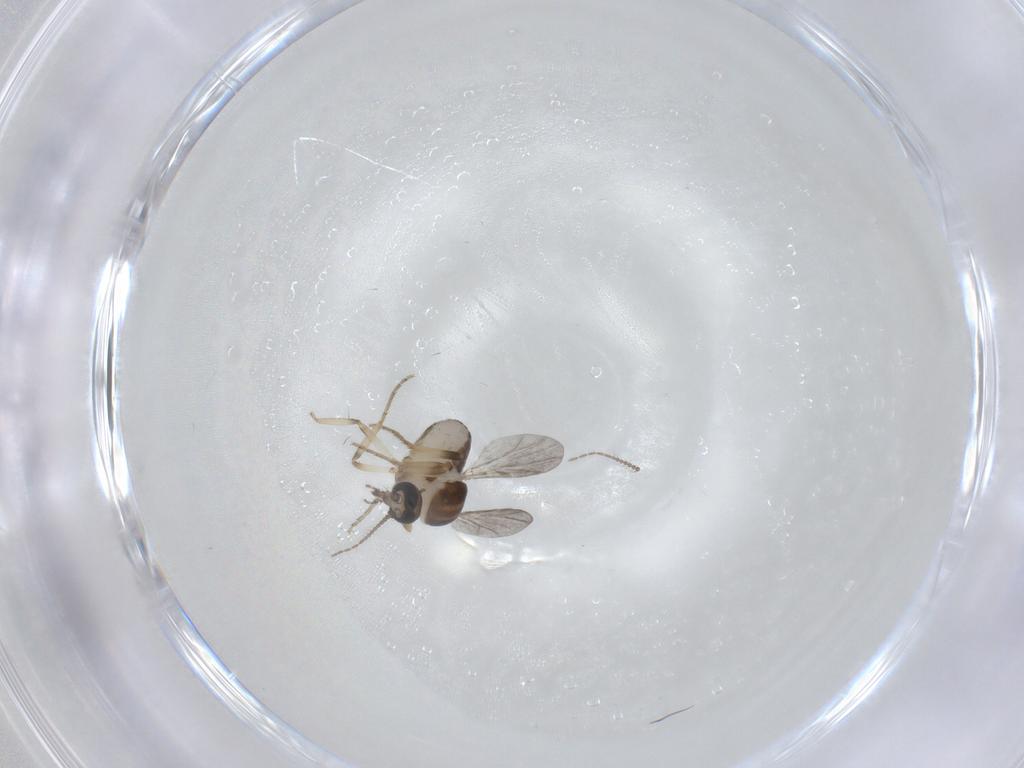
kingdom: Animalia
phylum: Arthropoda
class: Insecta
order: Diptera
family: Ceratopogonidae
